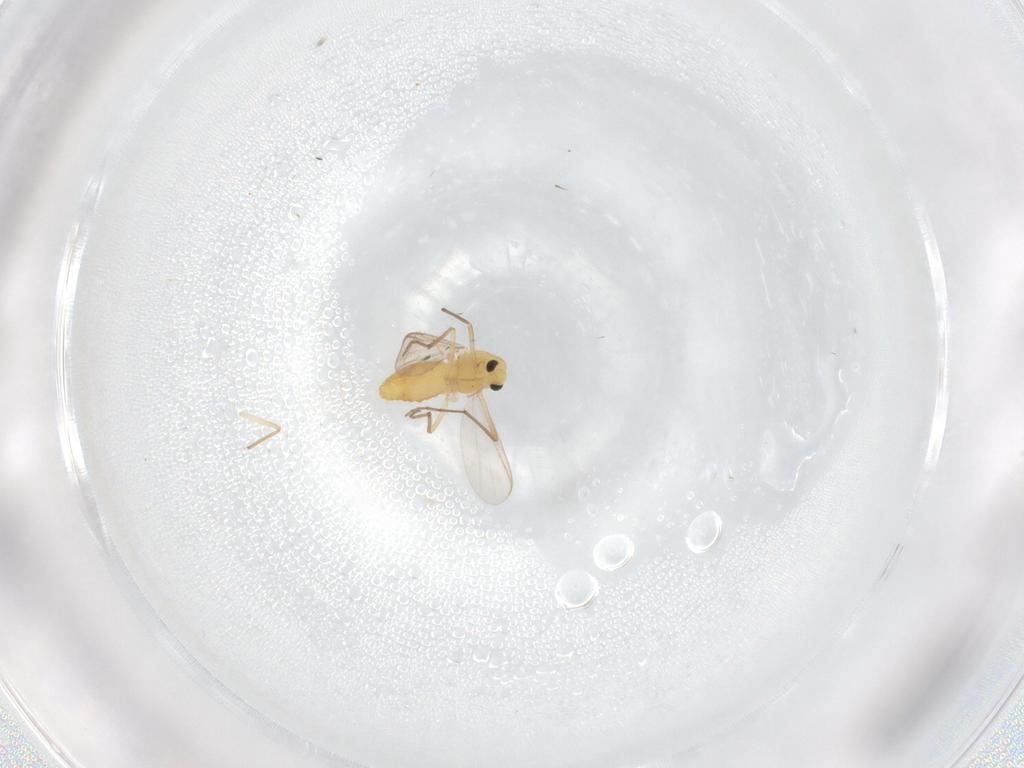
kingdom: Animalia
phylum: Arthropoda
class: Insecta
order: Diptera
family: Chironomidae
